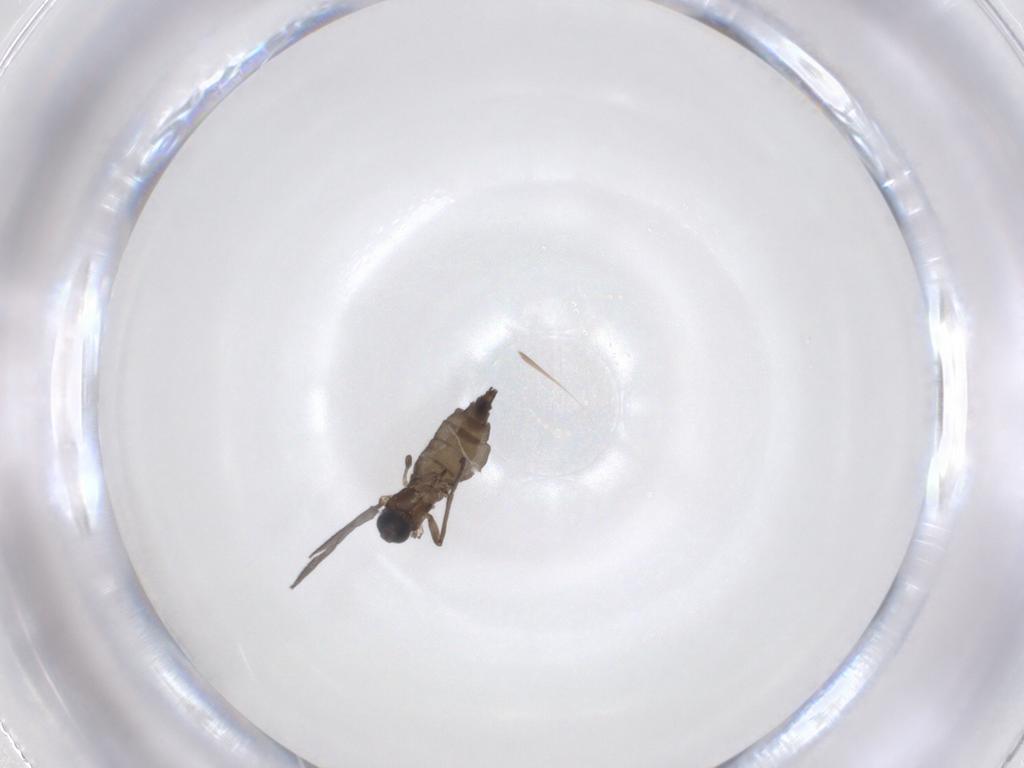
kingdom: Animalia
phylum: Arthropoda
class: Insecta
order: Diptera
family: Sciaridae
